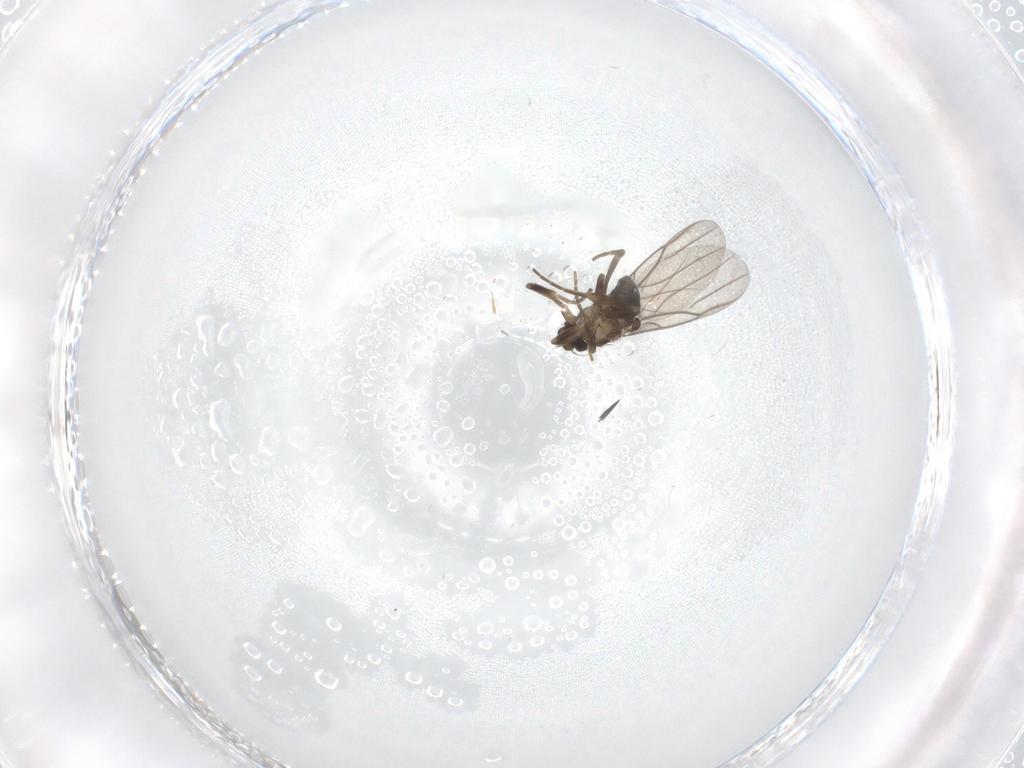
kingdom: Animalia
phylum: Arthropoda
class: Insecta
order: Diptera
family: Phoridae
